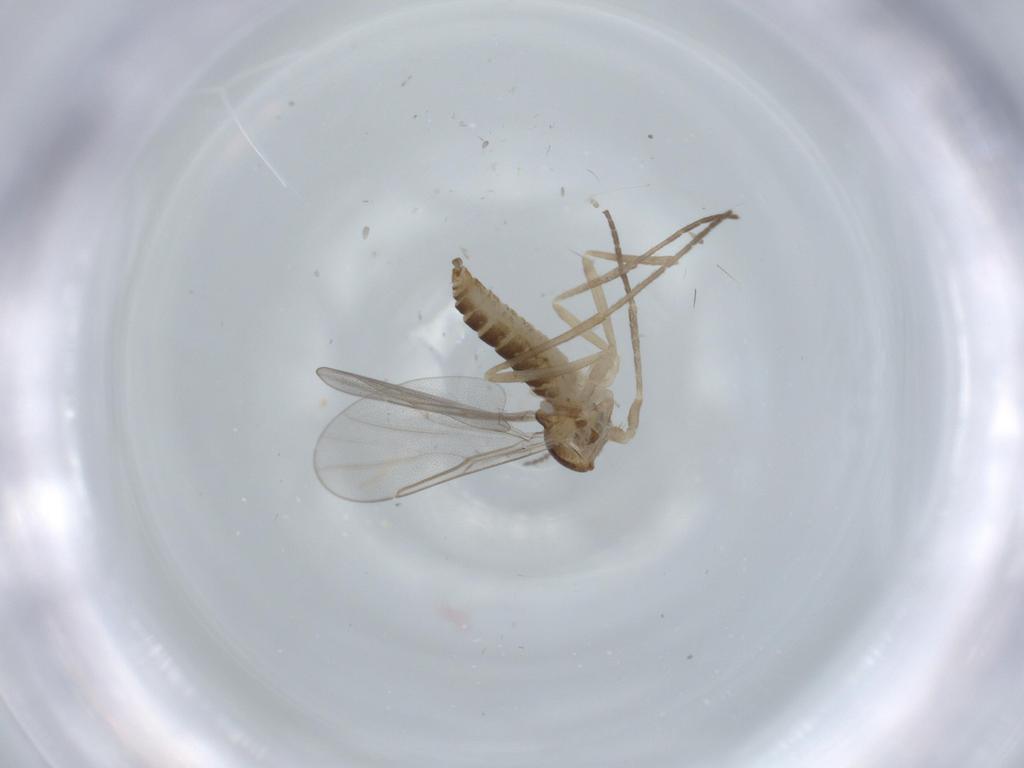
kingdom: Animalia
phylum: Arthropoda
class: Insecta
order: Diptera
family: Cecidomyiidae
